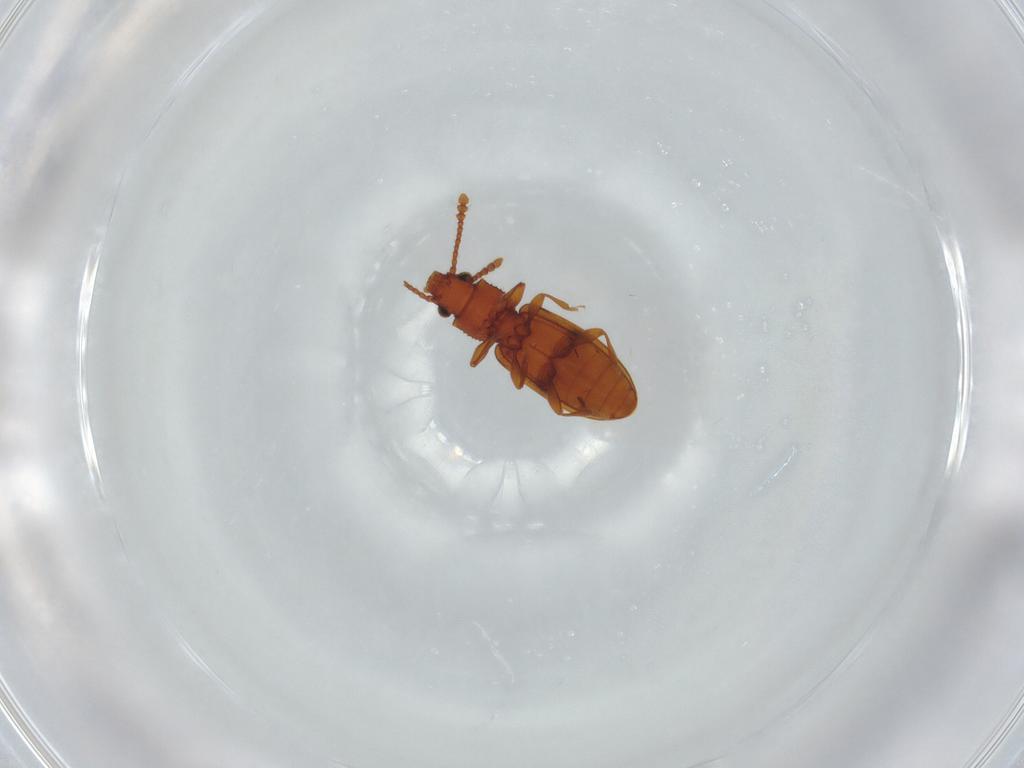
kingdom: Animalia
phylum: Arthropoda
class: Insecta
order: Coleoptera
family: Silvanidae
